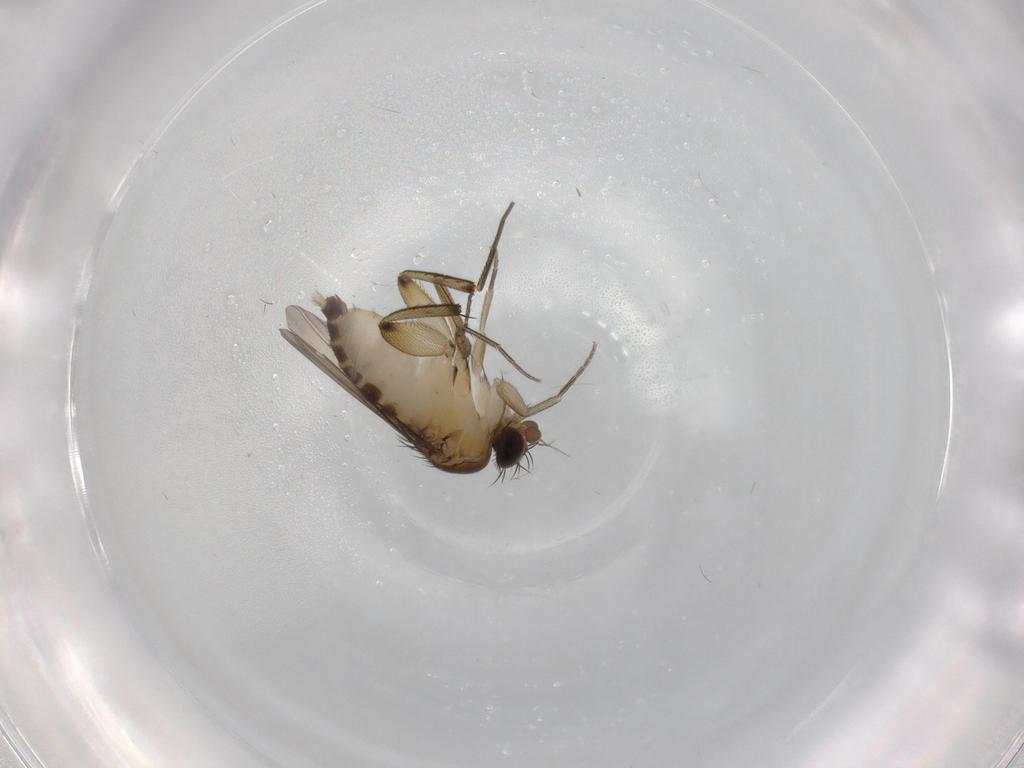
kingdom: Animalia
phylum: Arthropoda
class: Insecta
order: Diptera
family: Phoridae
